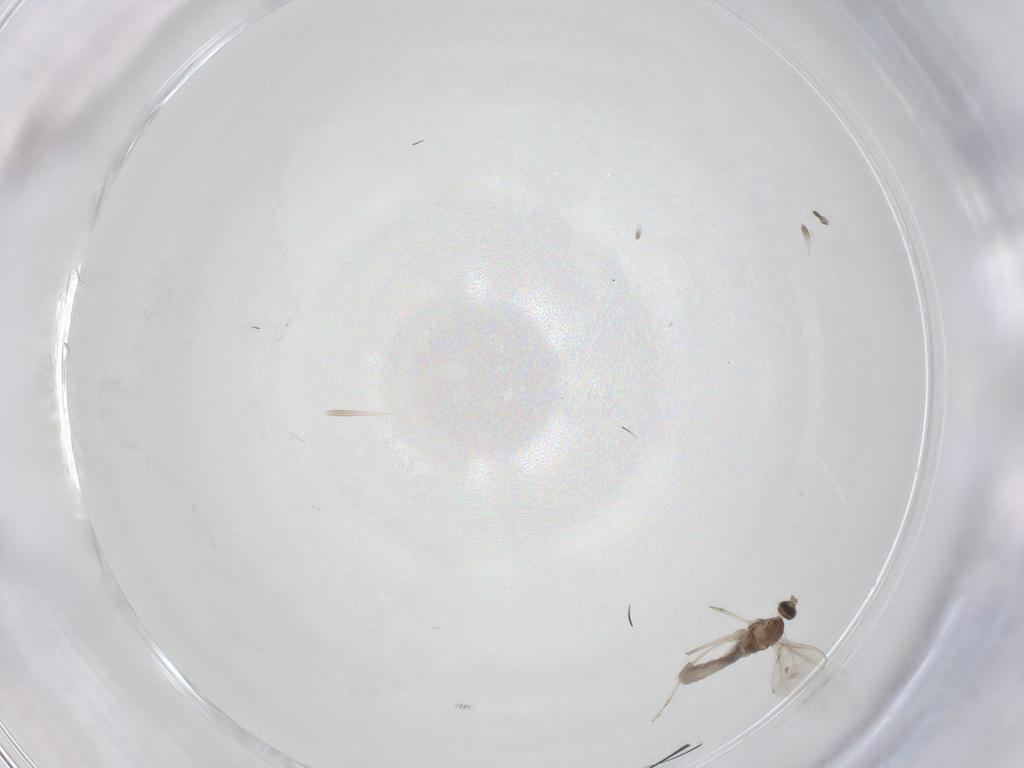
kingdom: Animalia
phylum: Arthropoda
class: Insecta
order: Diptera
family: Cecidomyiidae
